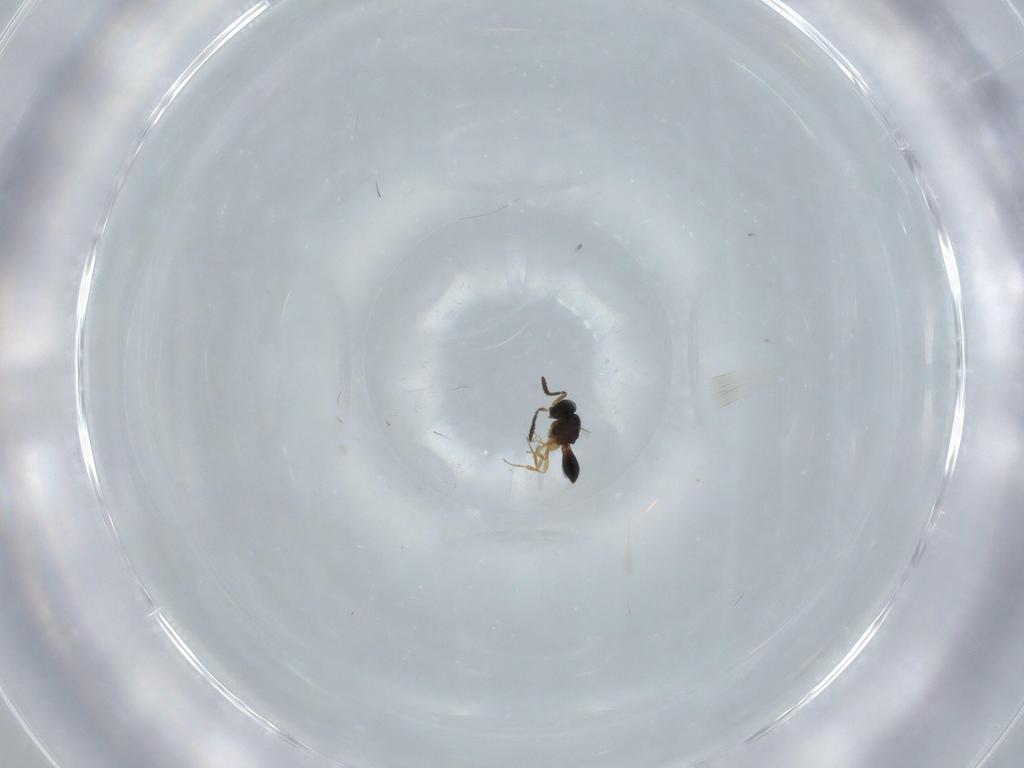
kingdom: Animalia
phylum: Arthropoda
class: Insecta
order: Hymenoptera
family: Scelionidae
